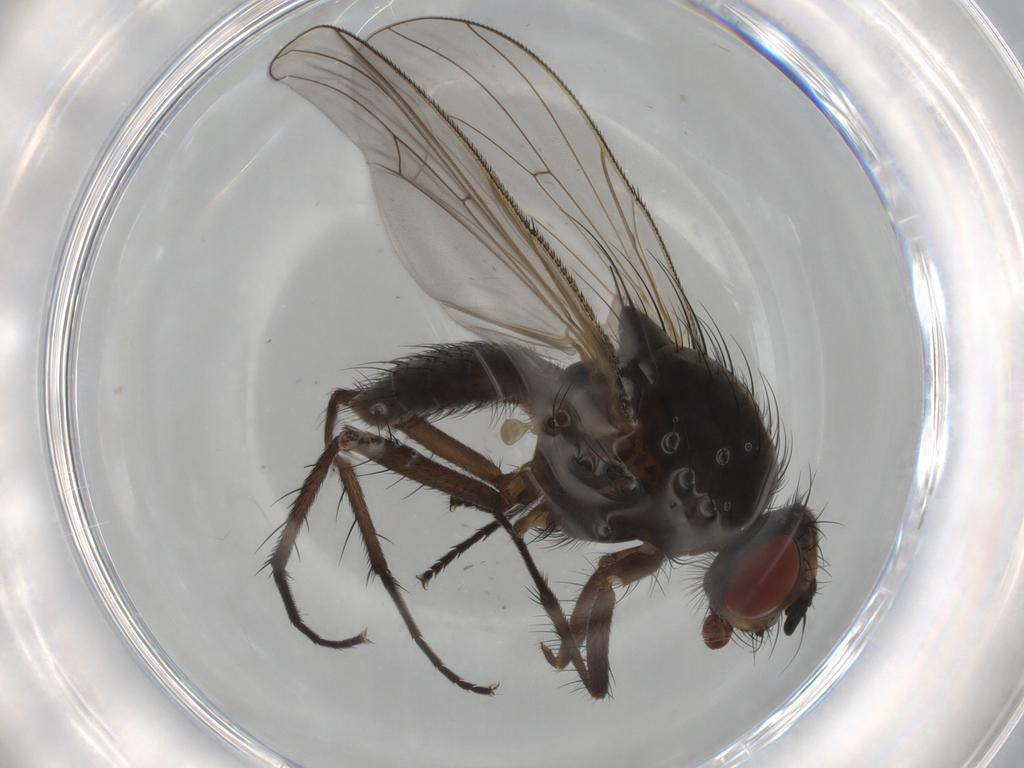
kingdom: Animalia
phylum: Arthropoda
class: Insecta
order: Diptera
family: Anthomyiidae
